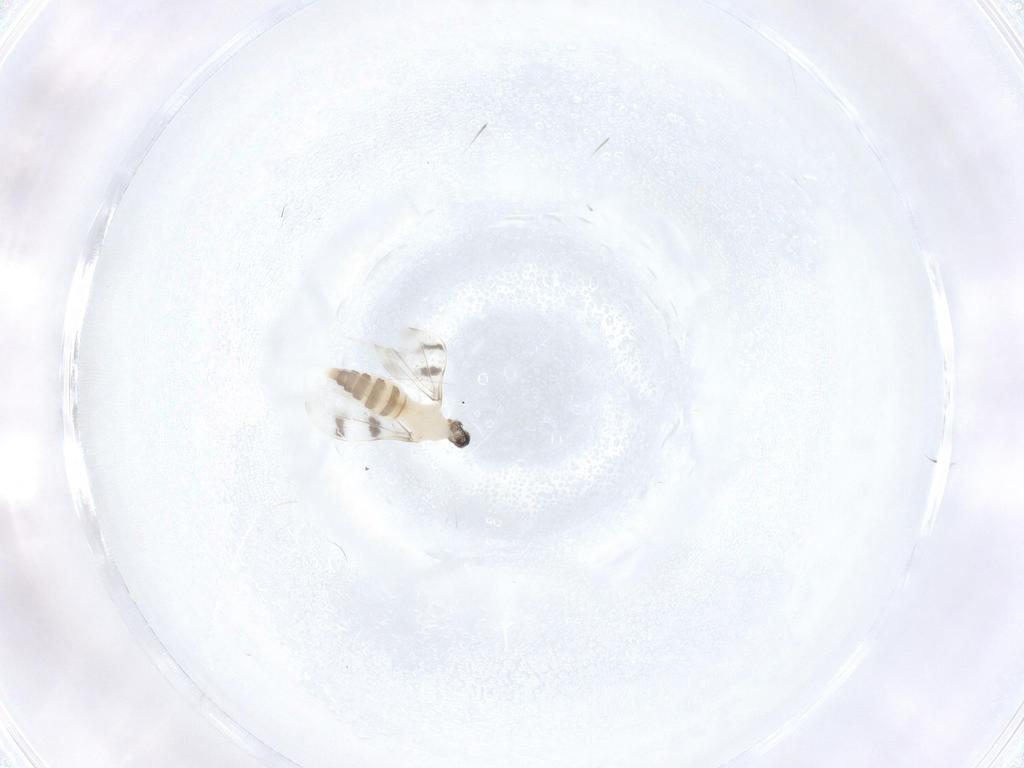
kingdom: Animalia
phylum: Arthropoda
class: Insecta
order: Diptera
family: Cecidomyiidae
